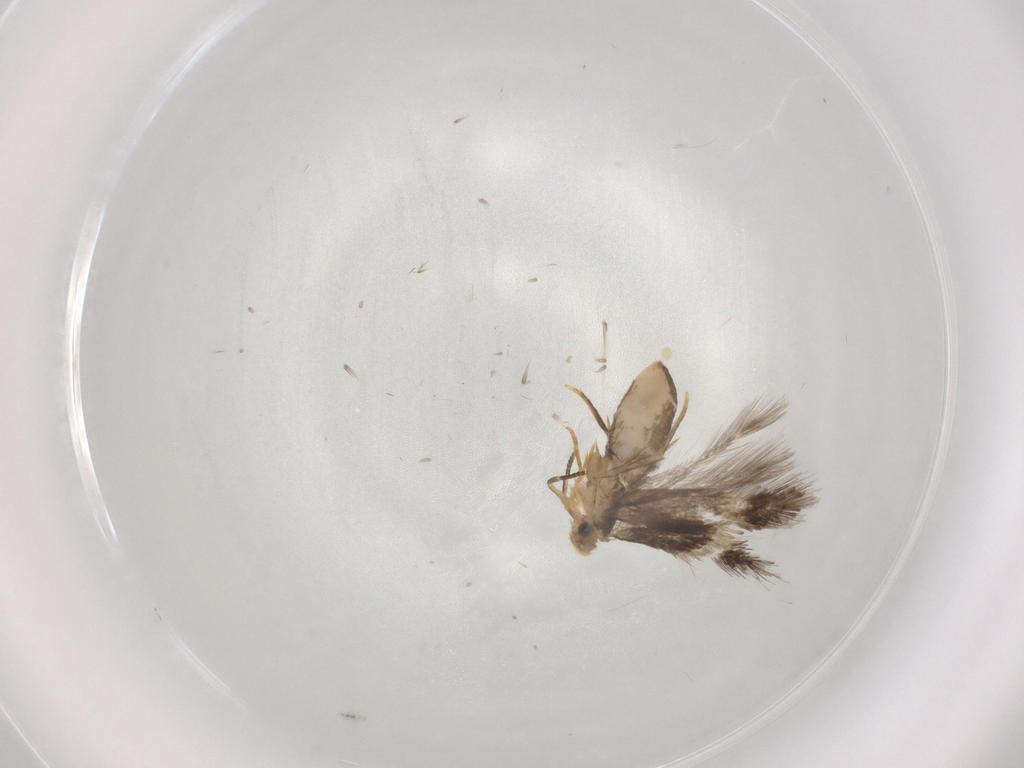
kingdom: Animalia
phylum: Arthropoda
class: Insecta
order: Lepidoptera
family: Nepticulidae
